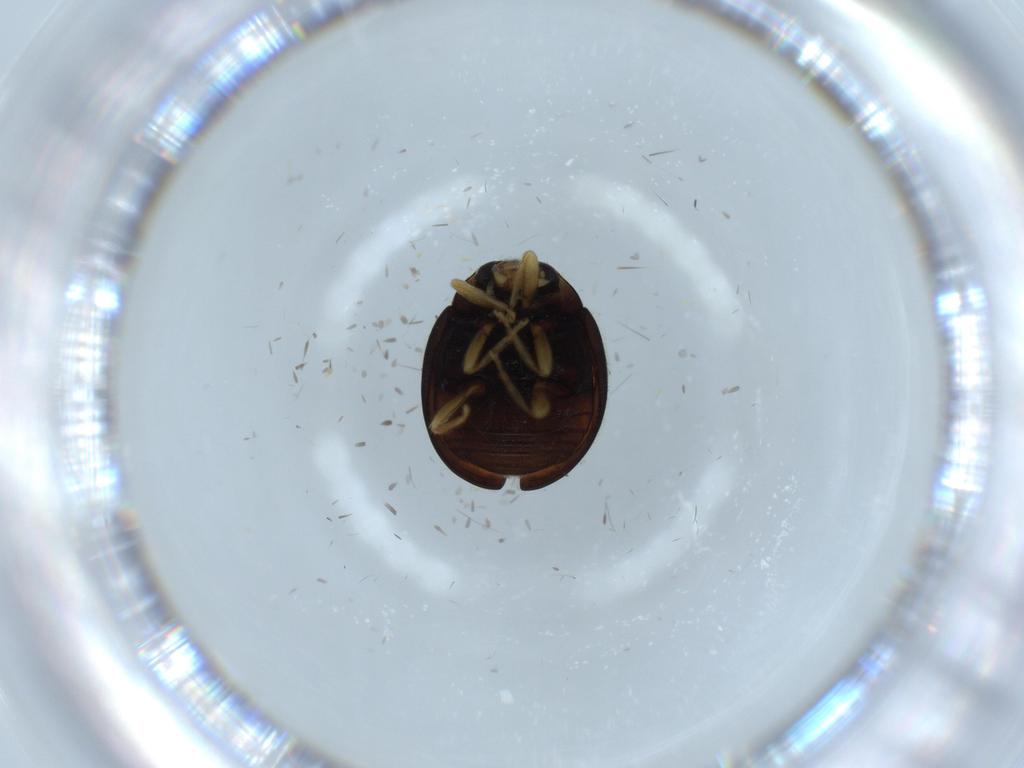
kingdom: Animalia
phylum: Arthropoda
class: Insecta
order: Coleoptera
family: Coccinellidae
